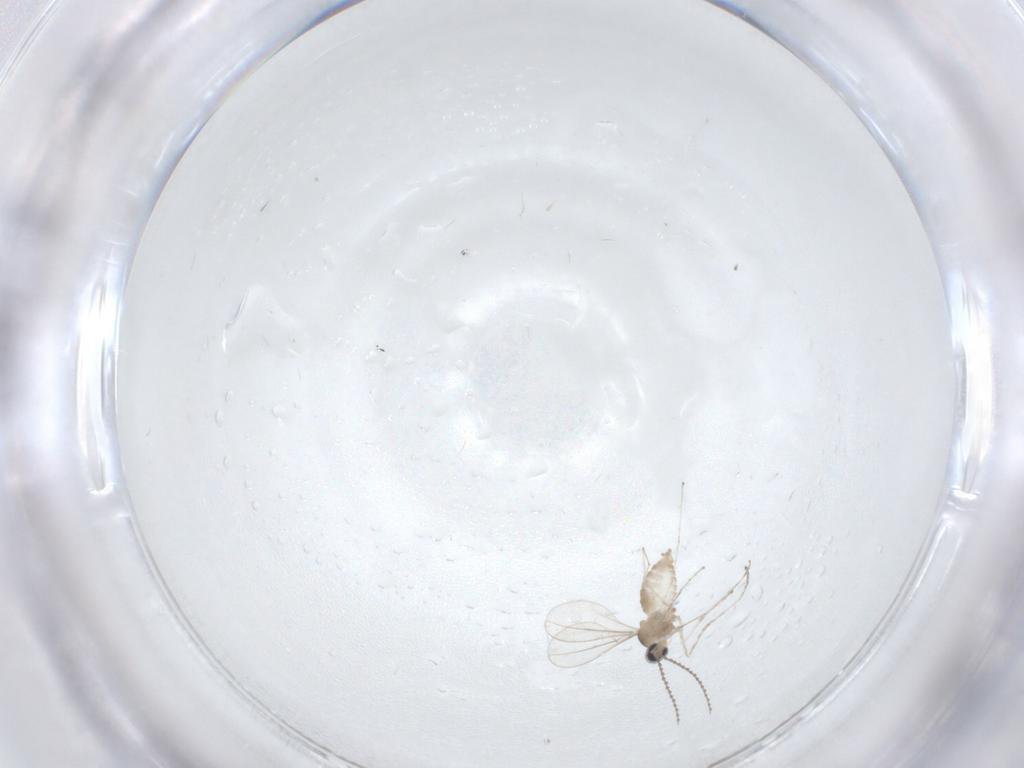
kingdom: Animalia
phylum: Arthropoda
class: Insecta
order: Diptera
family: Cecidomyiidae
